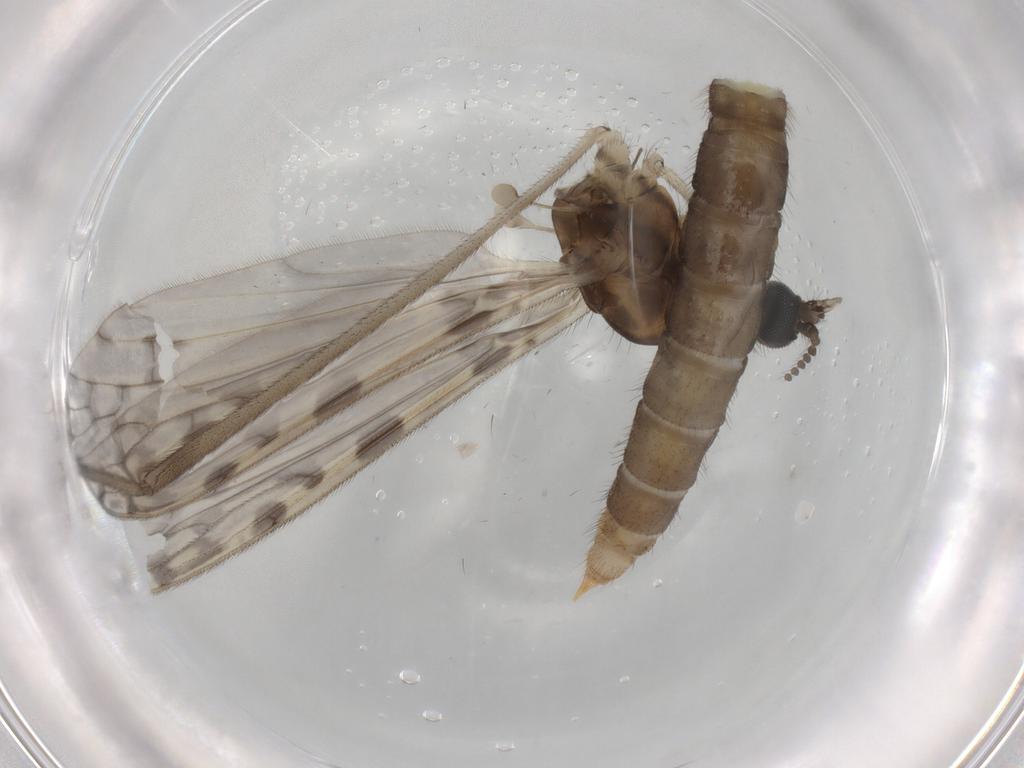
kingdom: Animalia
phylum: Arthropoda
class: Insecta
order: Diptera
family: Limoniidae
